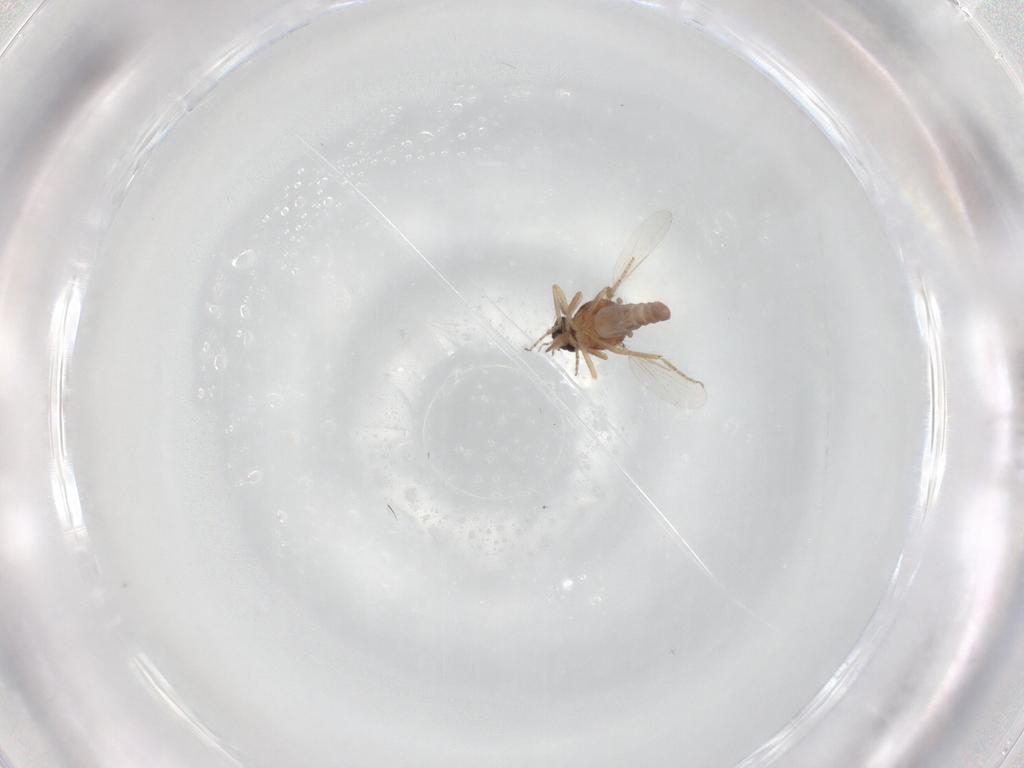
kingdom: Animalia
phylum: Arthropoda
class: Insecta
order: Diptera
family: Ceratopogonidae
